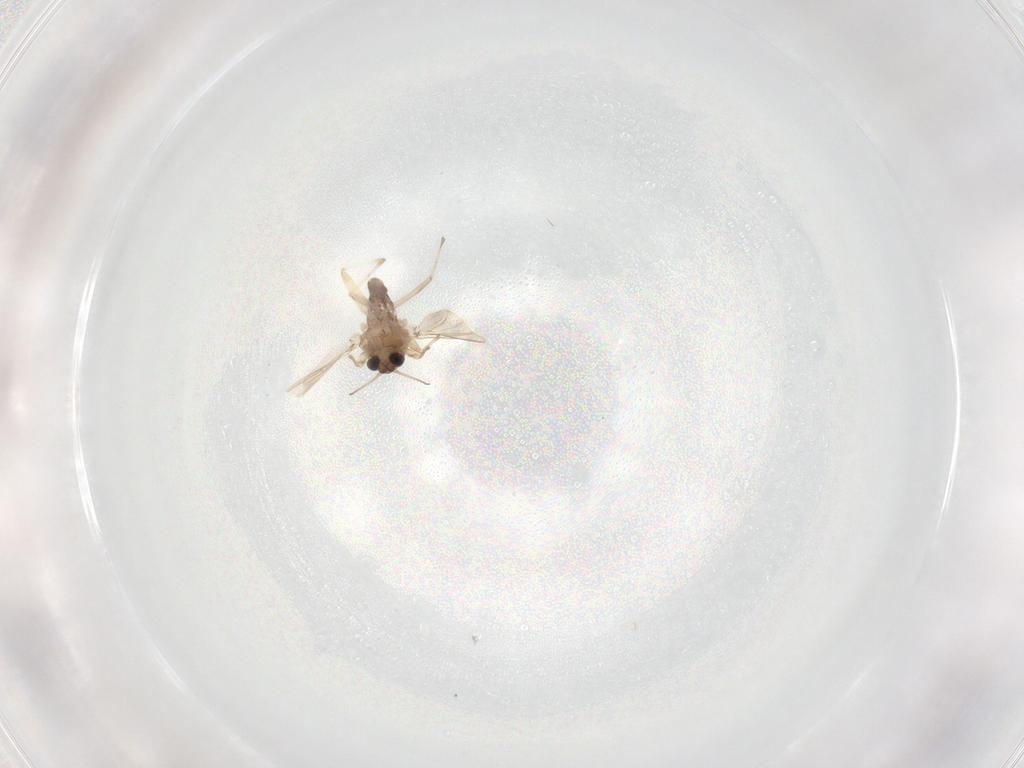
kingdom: Animalia
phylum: Arthropoda
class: Insecta
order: Diptera
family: Chironomidae
